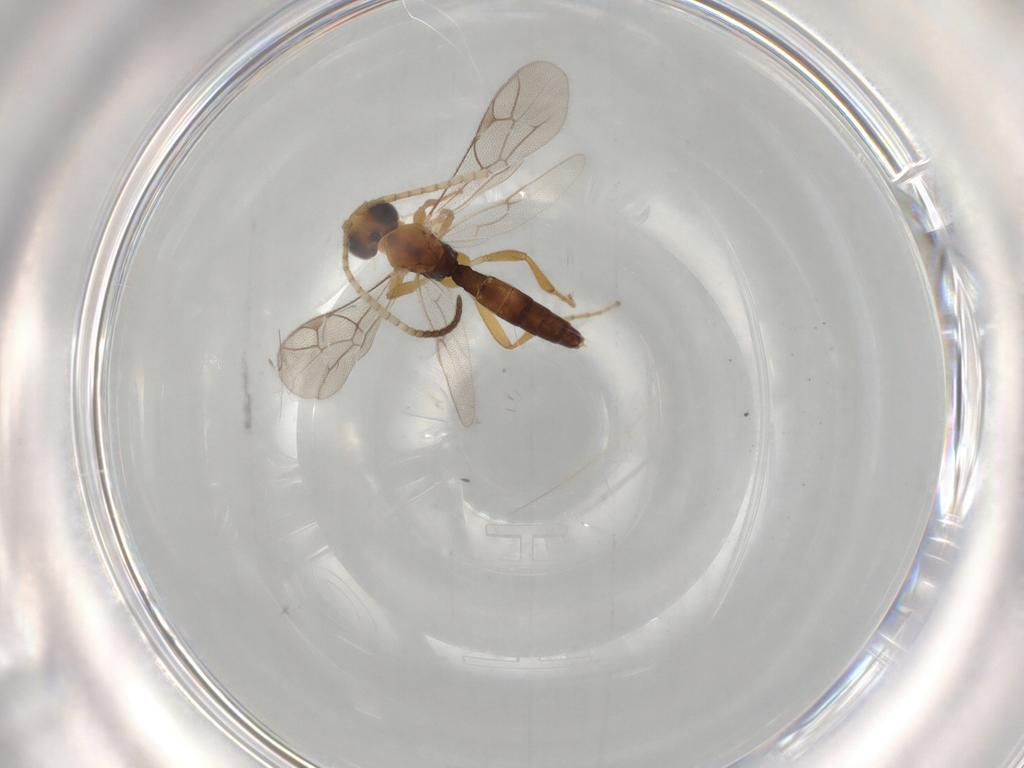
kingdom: Animalia
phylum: Arthropoda
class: Insecta
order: Hymenoptera
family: Ichneumonidae
